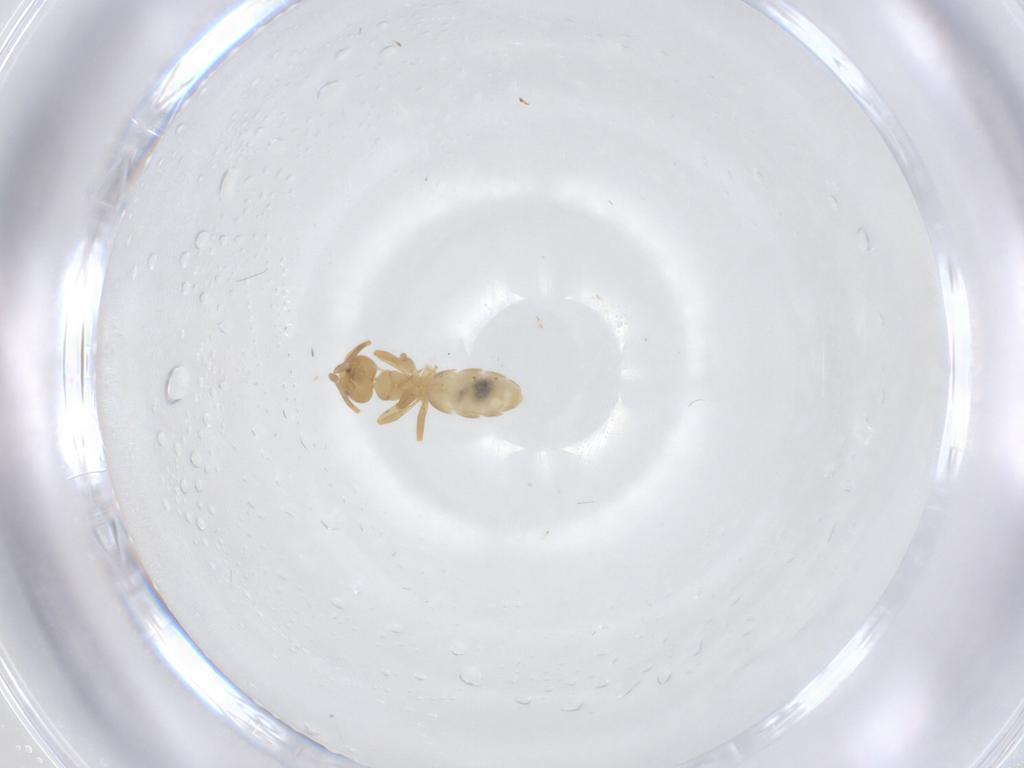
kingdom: Animalia
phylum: Arthropoda
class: Insecta
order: Hymenoptera
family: Formicidae
